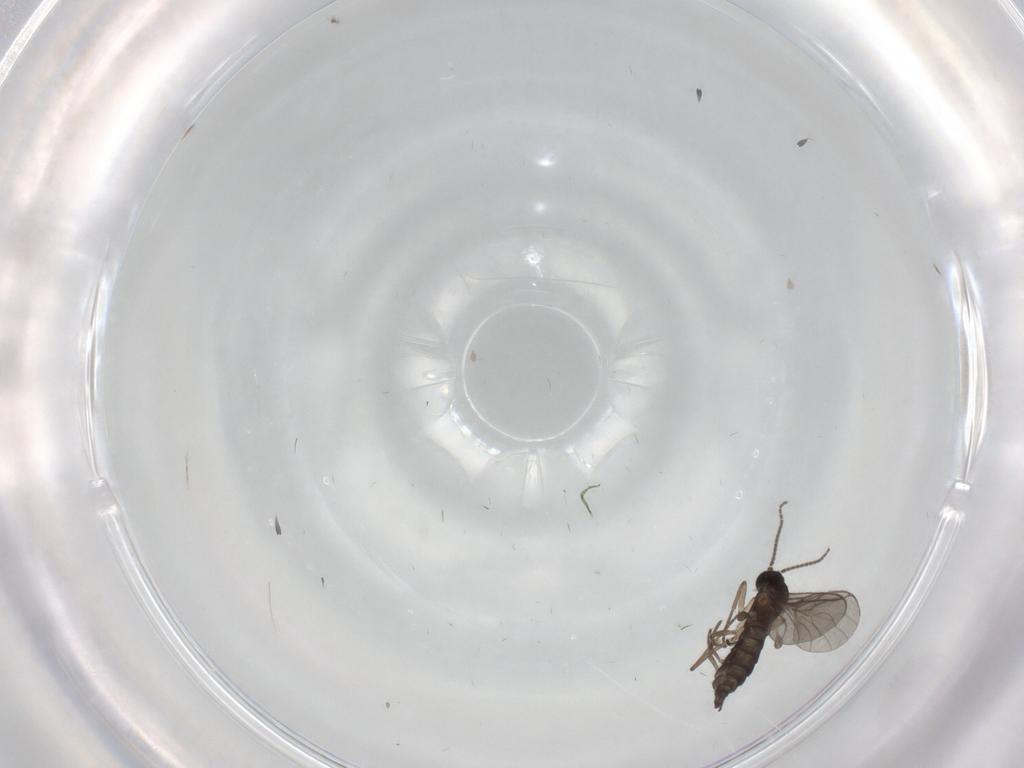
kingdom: Animalia
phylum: Arthropoda
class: Insecta
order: Diptera
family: Sciaridae
